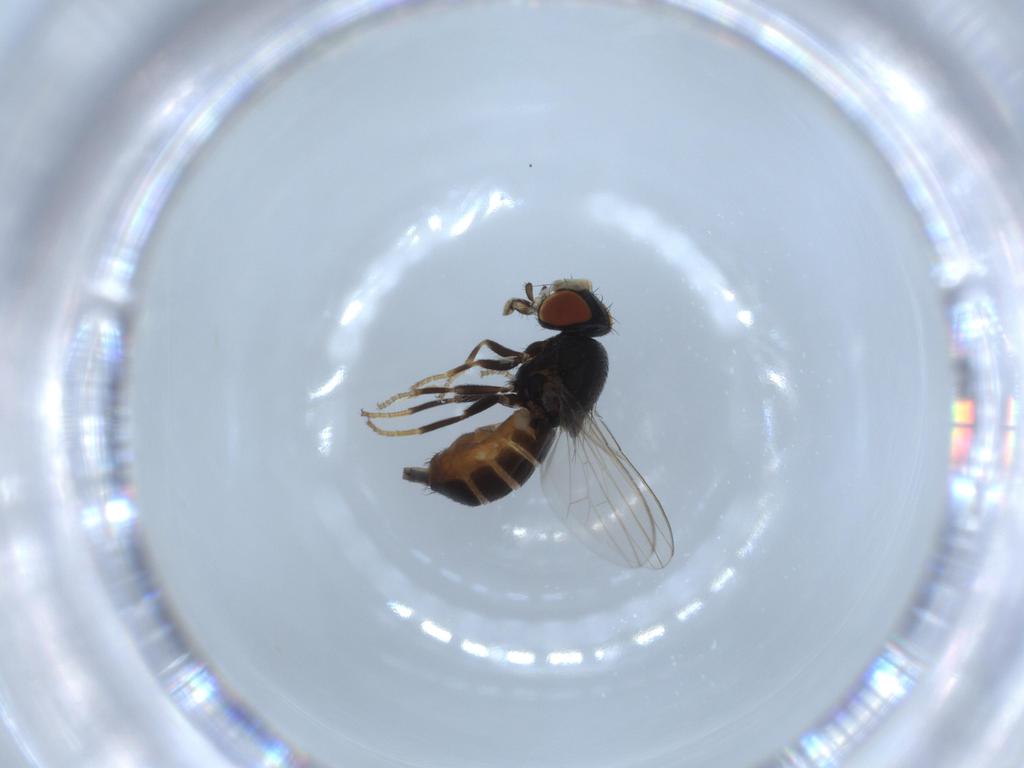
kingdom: Animalia
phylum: Arthropoda
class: Insecta
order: Diptera
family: Milichiidae
